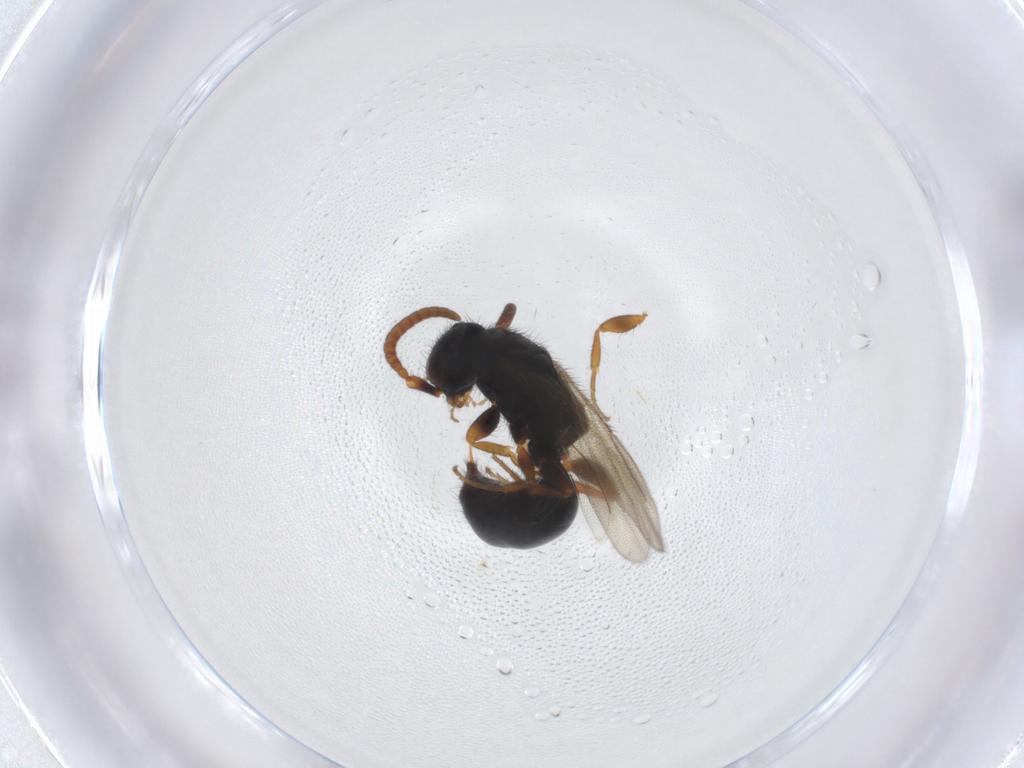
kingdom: Animalia
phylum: Arthropoda
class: Insecta
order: Hymenoptera
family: Bethylidae
